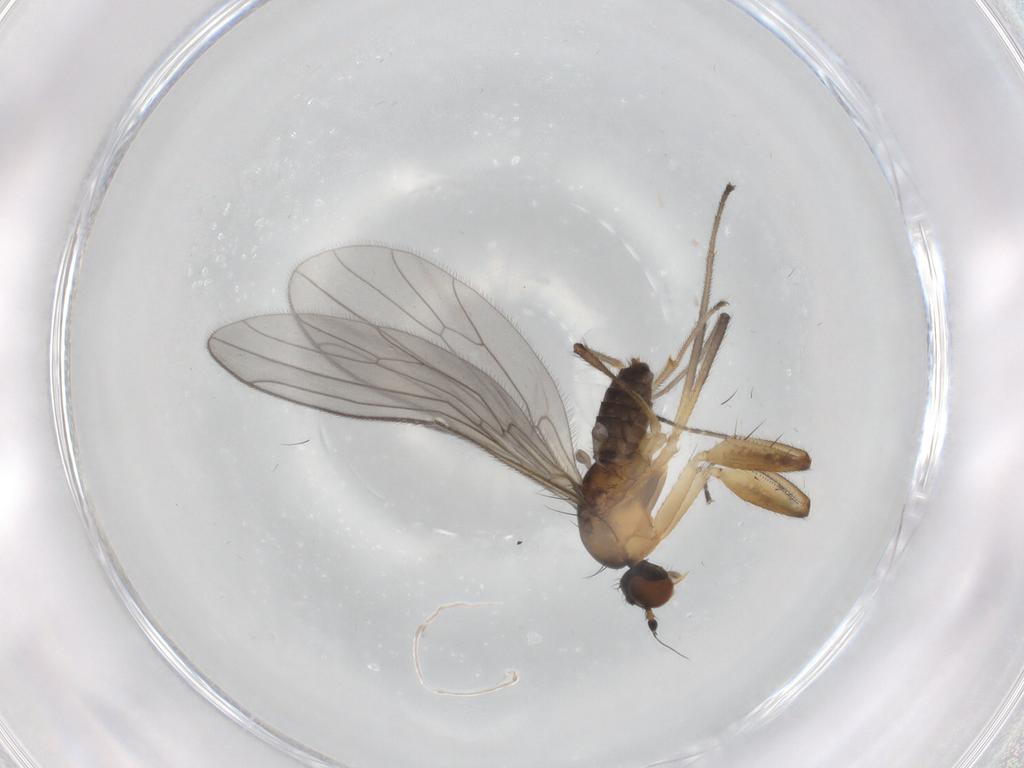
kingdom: Animalia
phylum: Arthropoda
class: Insecta
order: Diptera
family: Empididae
